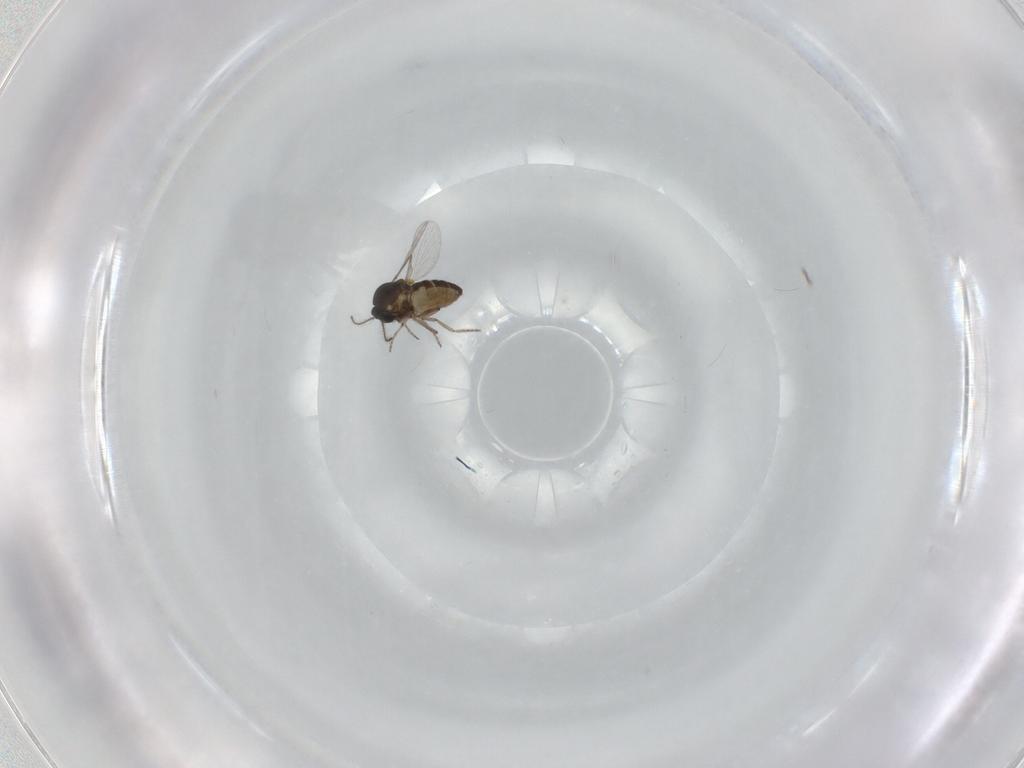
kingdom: Animalia
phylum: Arthropoda
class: Insecta
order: Diptera
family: Ceratopogonidae
